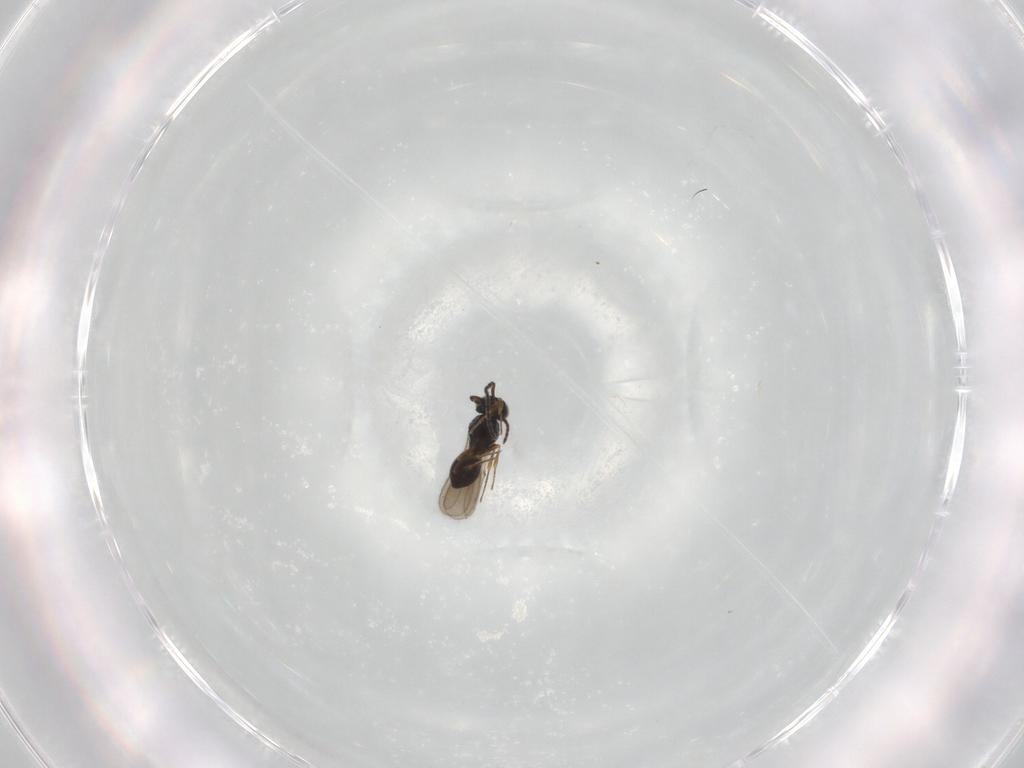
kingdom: Animalia
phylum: Arthropoda
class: Insecta
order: Hymenoptera
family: Scelionidae
